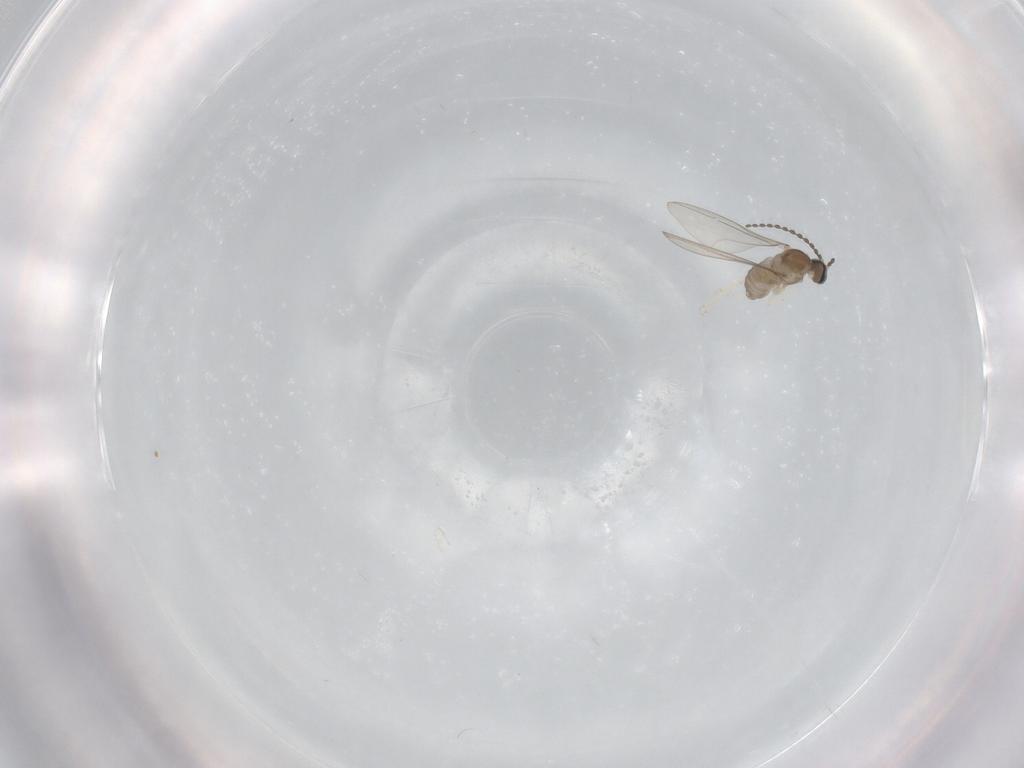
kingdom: Animalia
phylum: Arthropoda
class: Insecta
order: Diptera
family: Cecidomyiidae
